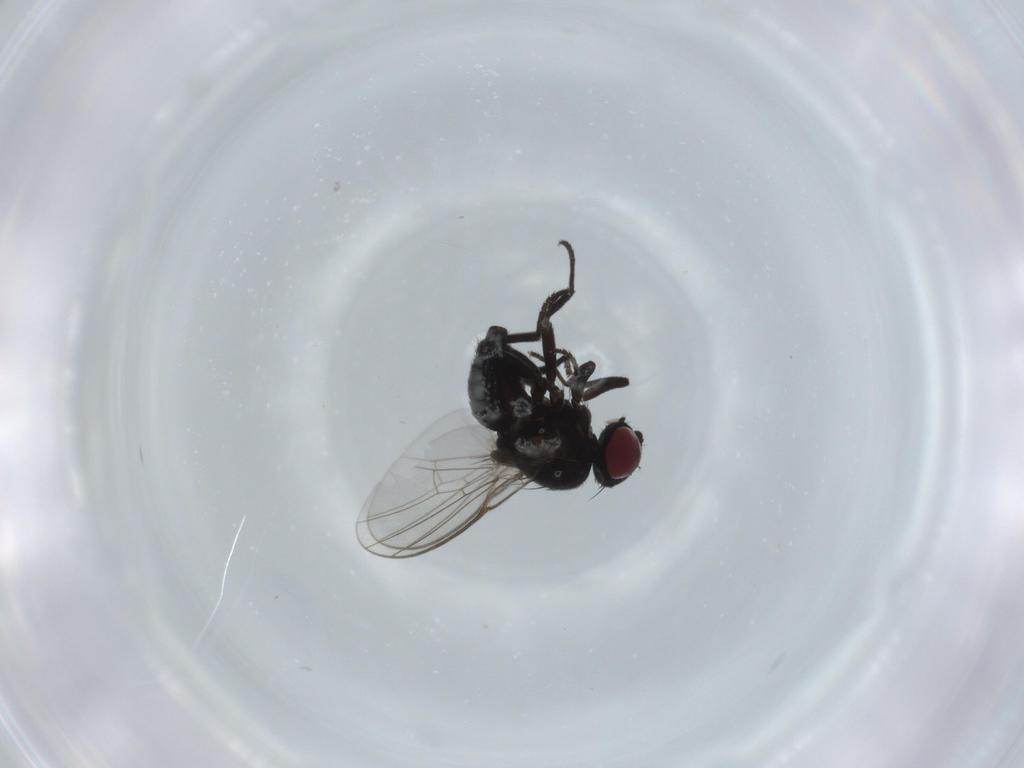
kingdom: Animalia
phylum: Arthropoda
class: Insecta
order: Diptera
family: Agromyzidae
